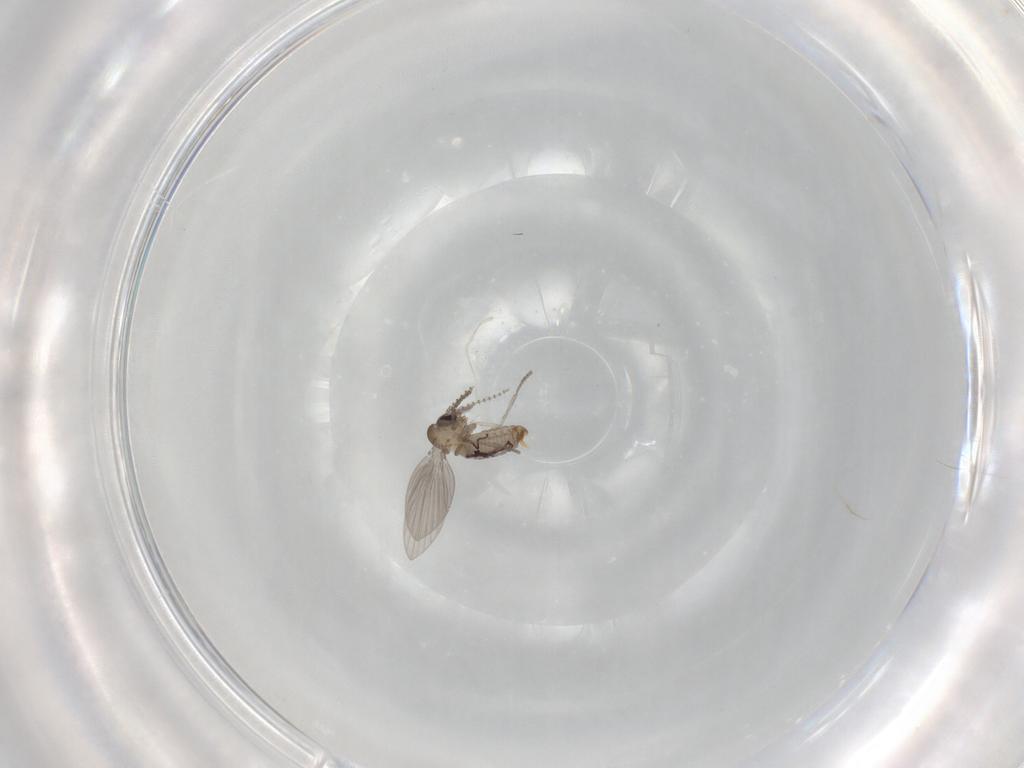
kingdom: Animalia
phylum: Arthropoda
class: Insecta
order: Diptera
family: Psychodidae
